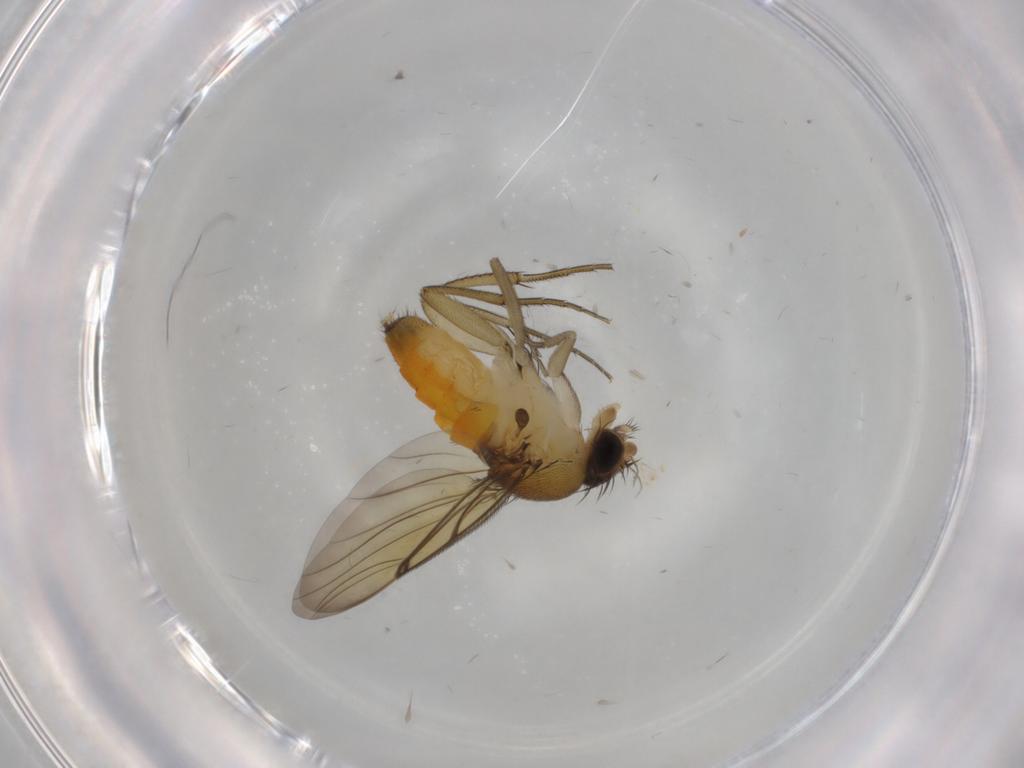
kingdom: Animalia
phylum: Arthropoda
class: Insecta
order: Diptera
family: Phoridae
